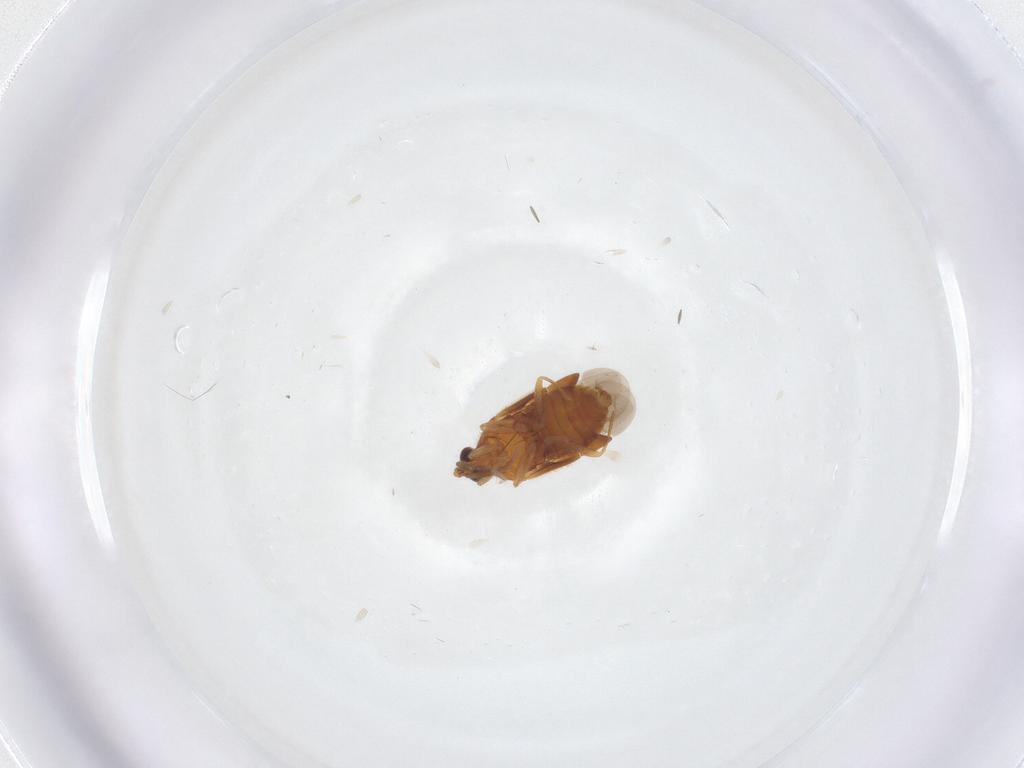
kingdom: Animalia
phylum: Arthropoda
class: Insecta
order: Hemiptera
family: Anthocoridae
